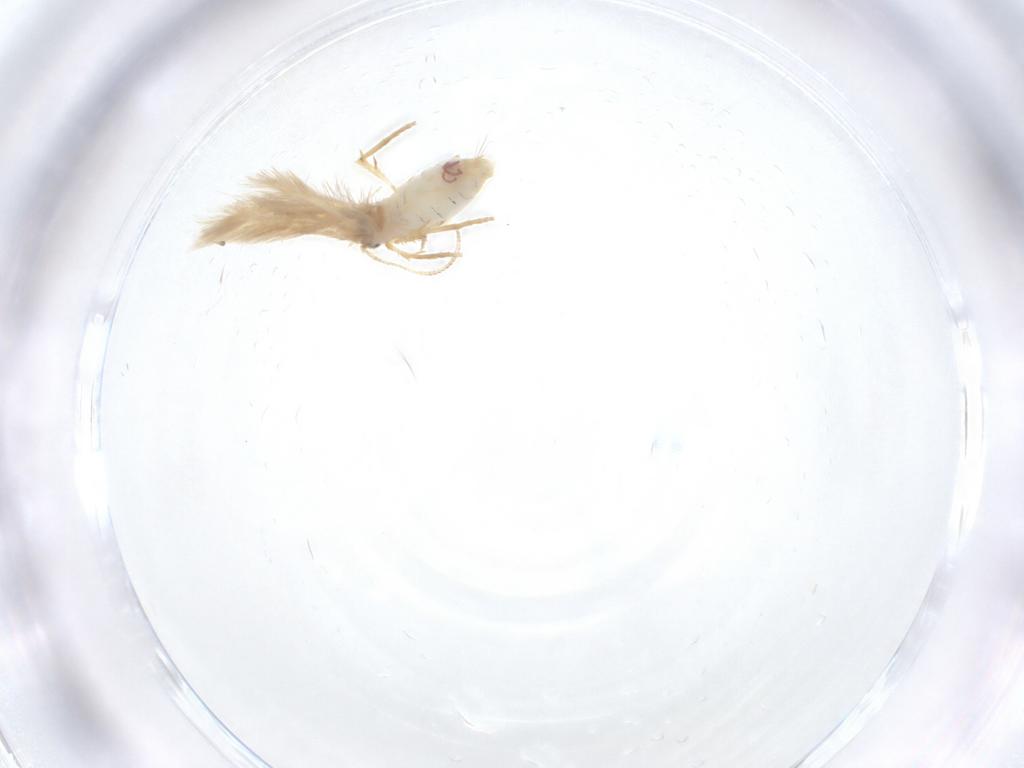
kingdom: Animalia
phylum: Arthropoda
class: Insecta
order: Lepidoptera
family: Nepticulidae
